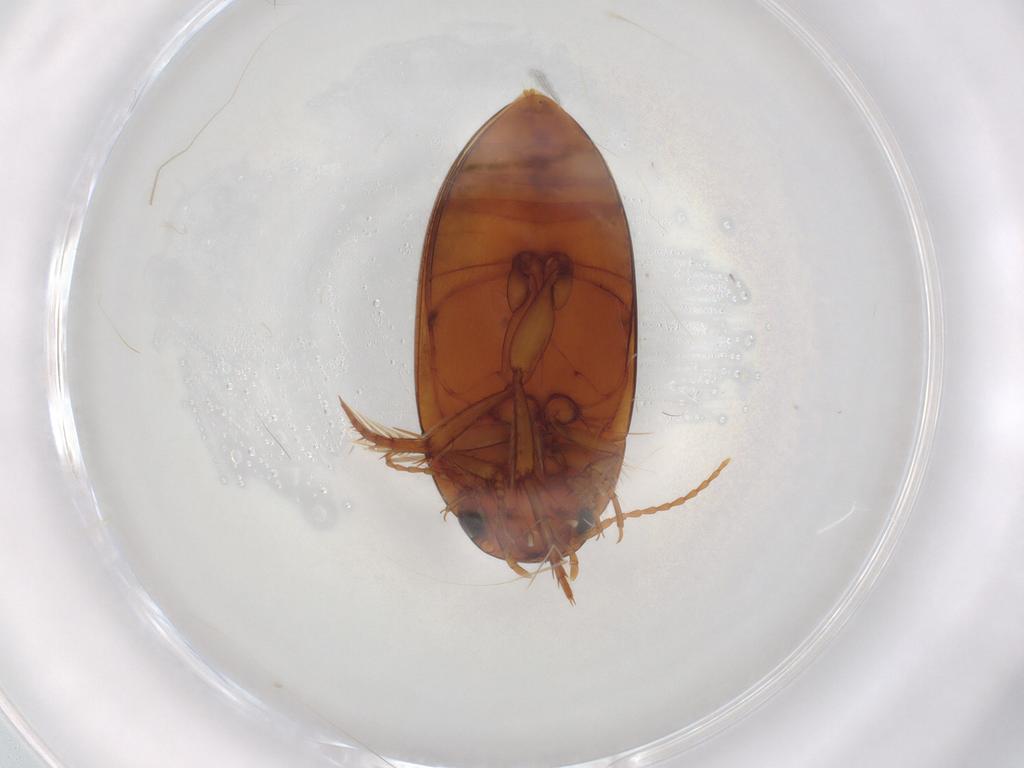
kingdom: Animalia
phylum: Arthropoda
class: Insecta
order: Coleoptera
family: Dytiscidae
